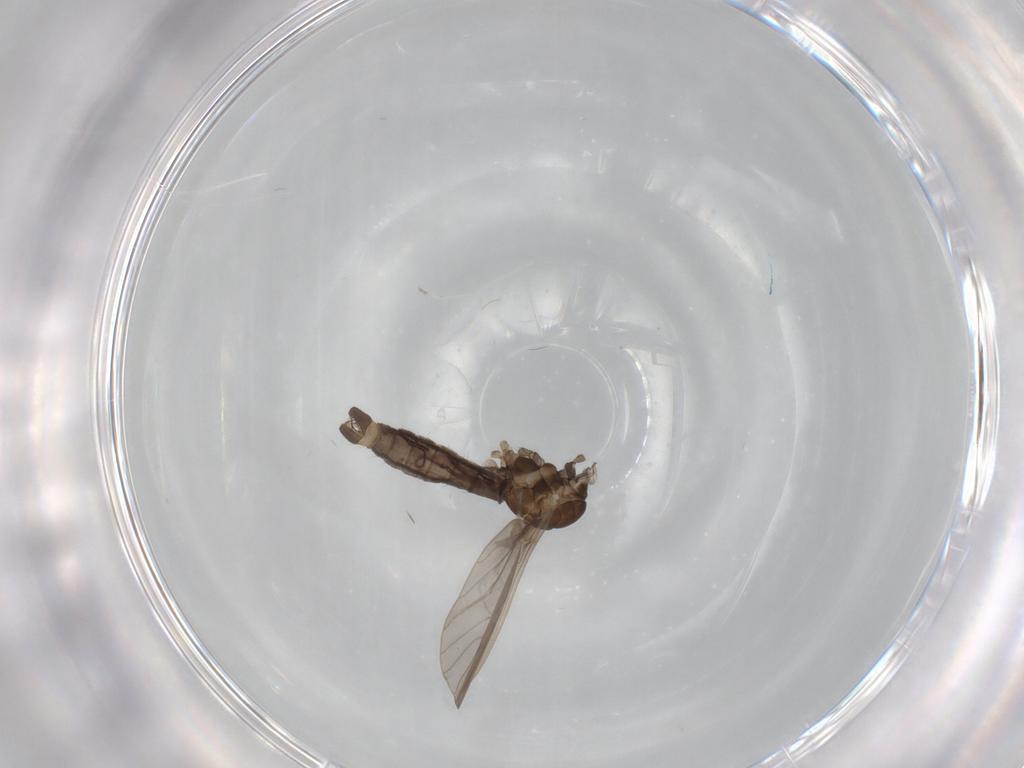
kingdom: Animalia
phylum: Arthropoda
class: Insecta
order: Diptera
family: Limoniidae
